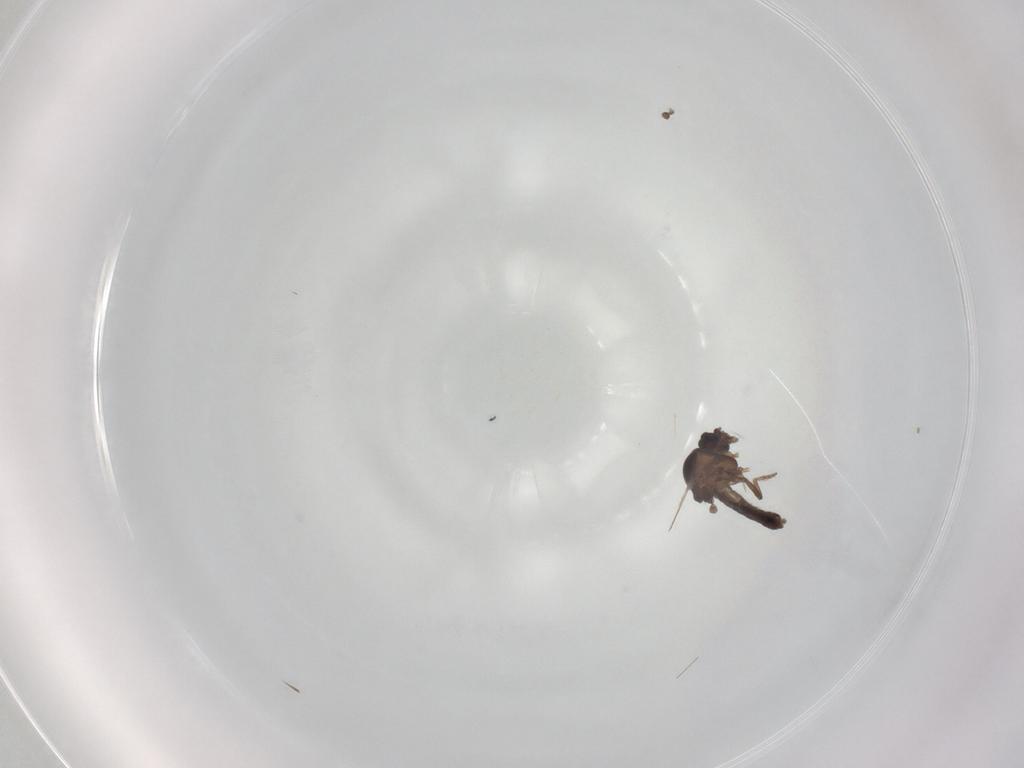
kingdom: Animalia
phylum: Arthropoda
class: Insecta
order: Diptera
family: Ceratopogonidae
